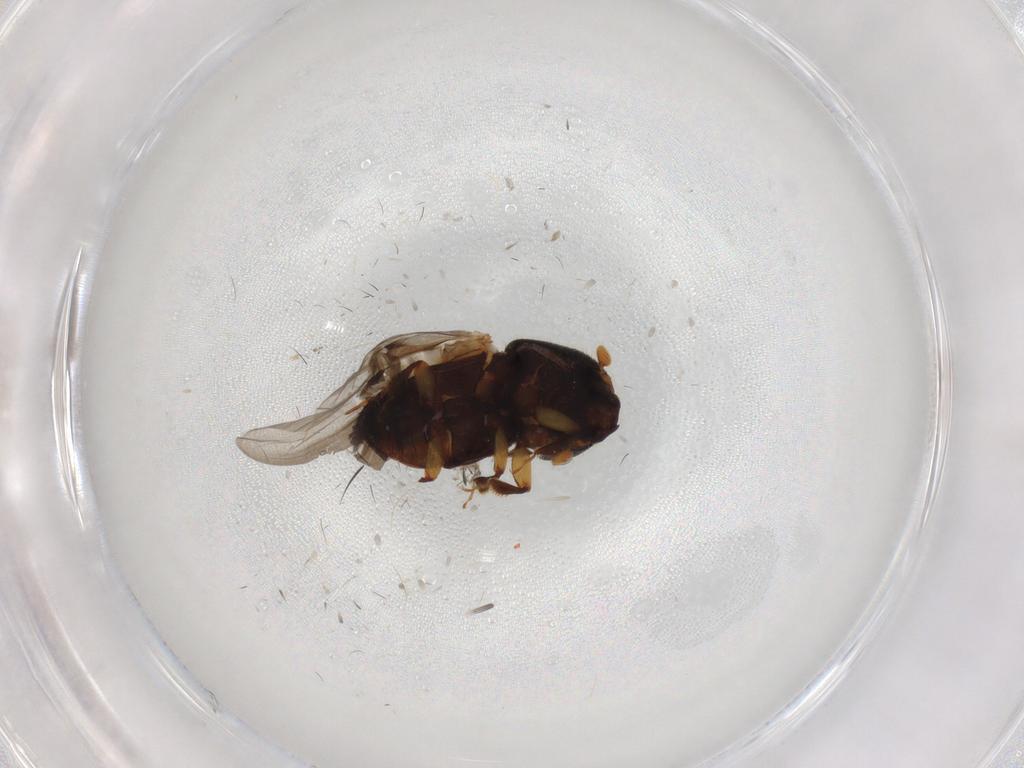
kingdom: Animalia
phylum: Arthropoda
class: Insecta
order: Coleoptera
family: Curculionidae
